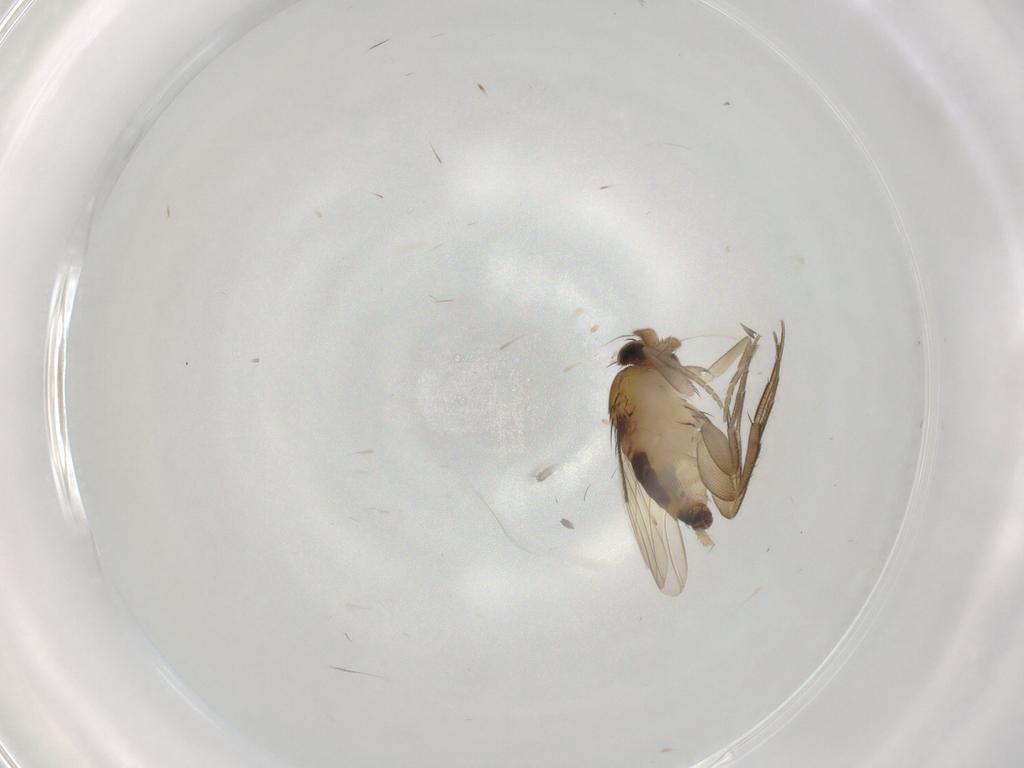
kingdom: Animalia
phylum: Arthropoda
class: Insecta
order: Diptera
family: Phoridae
